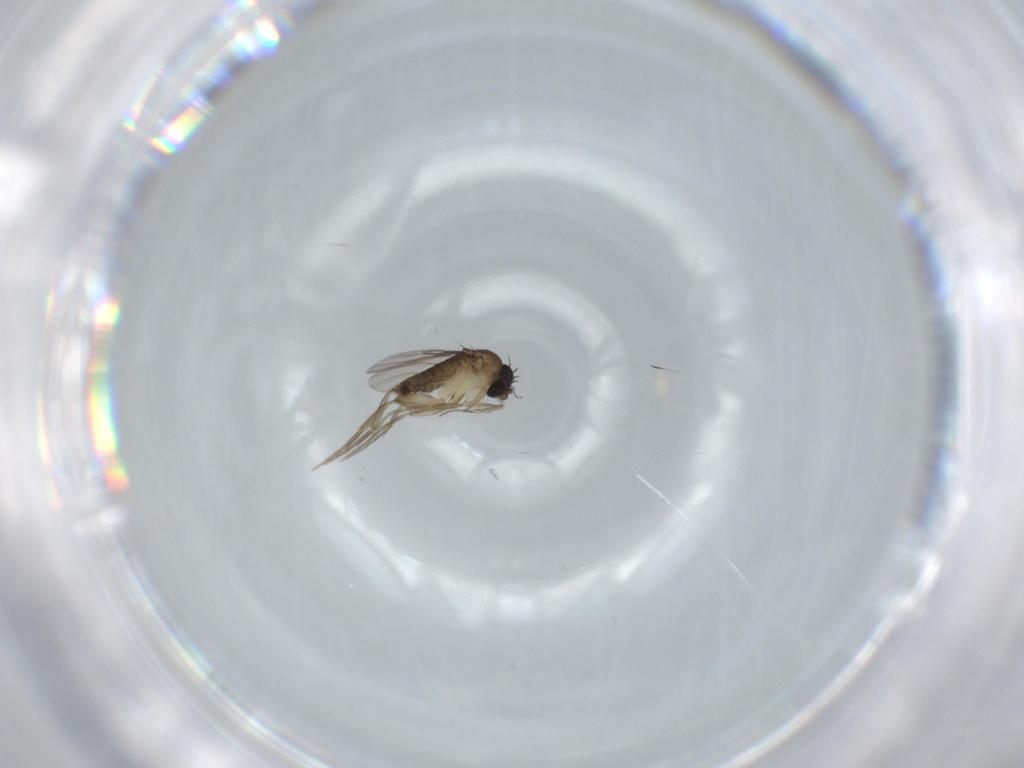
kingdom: Animalia
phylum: Arthropoda
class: Insecta
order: Diptera
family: Phoridae
